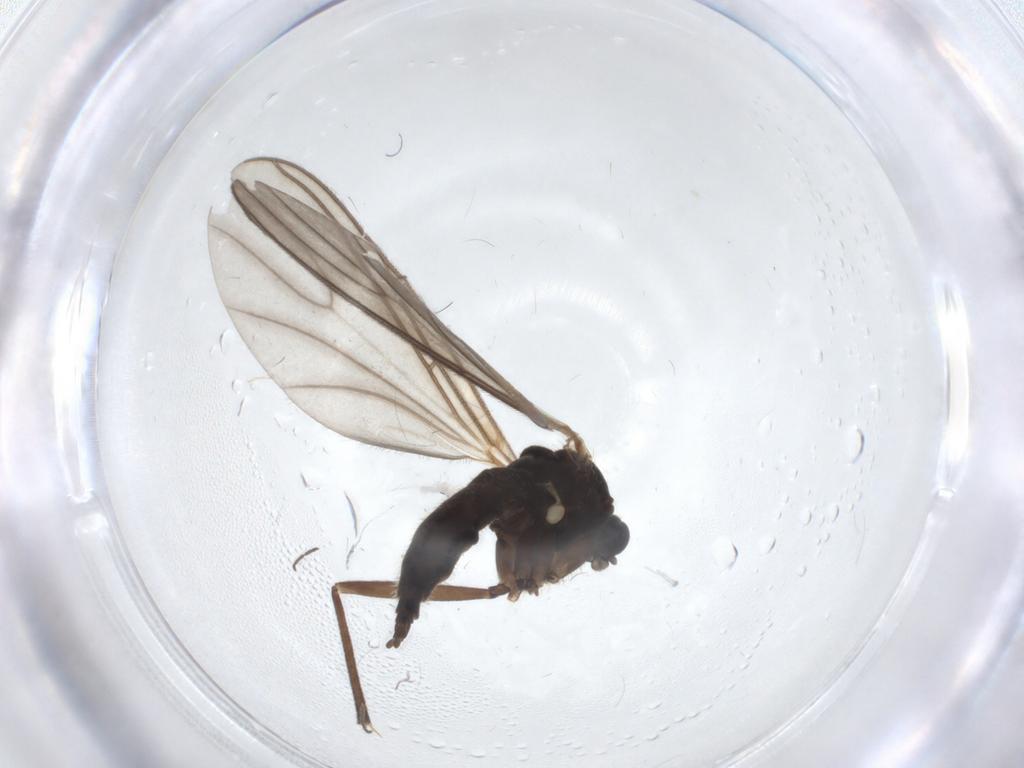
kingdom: Animalia
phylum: Arthropoda
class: Insecta
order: Diptera
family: Sciaridae
